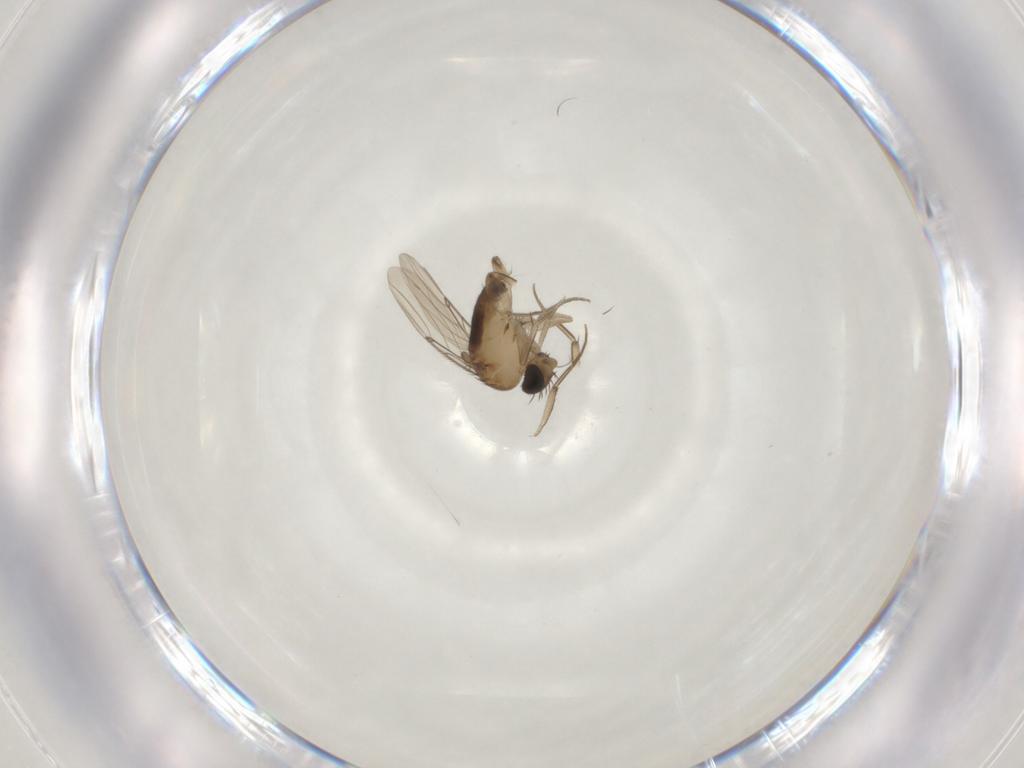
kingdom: Animalia
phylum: Arthropoda
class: Insecta
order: Diptera
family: Phoridae
